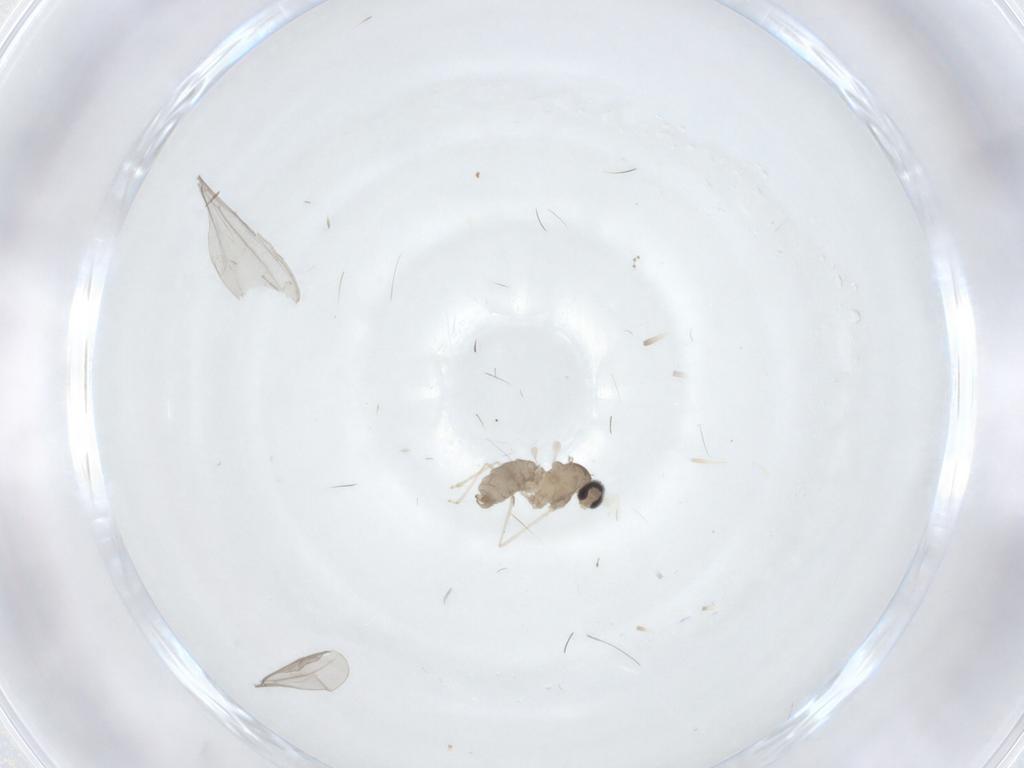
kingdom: Animalia
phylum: Arthropoda
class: Insecta
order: Diptera
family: Cecidomyiidae
